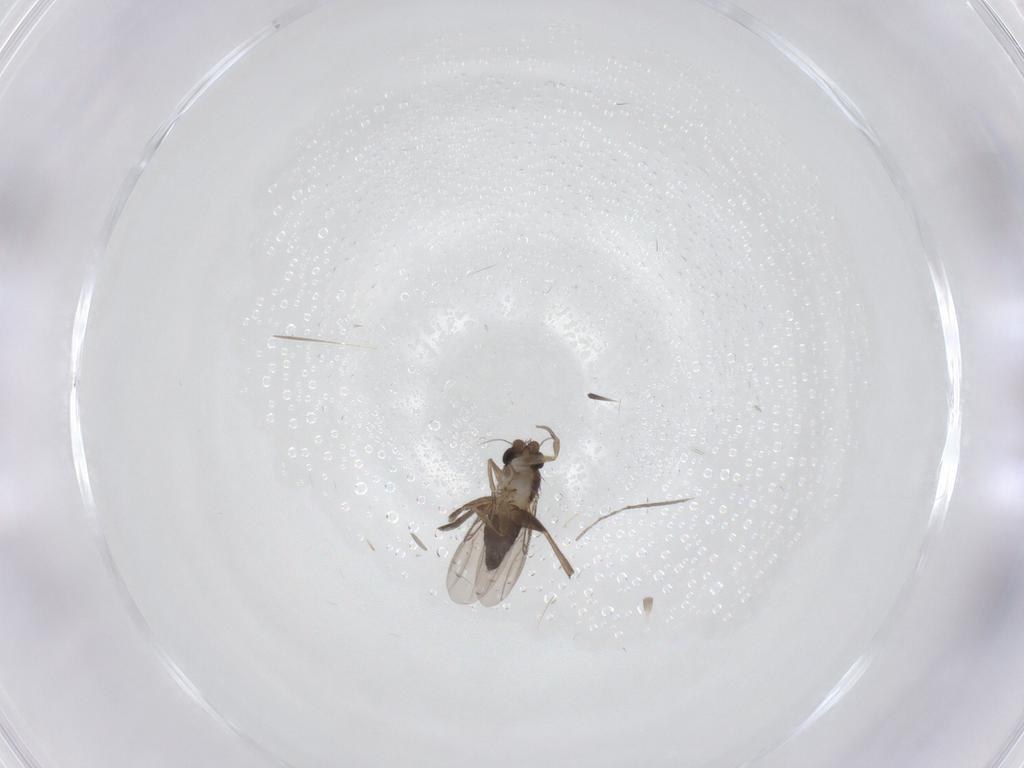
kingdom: Animalia
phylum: Arthropoda
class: Insecta
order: Diptera
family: Phoridae
